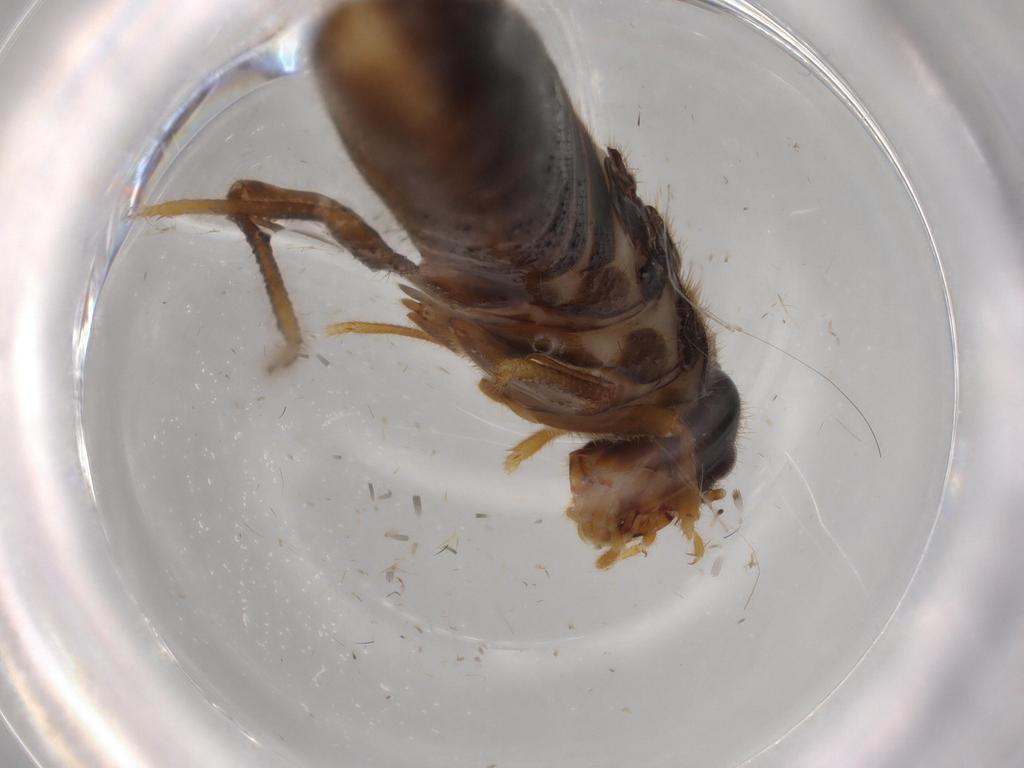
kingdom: Animalia
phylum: Arthropoda
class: Insecta
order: Blattodea
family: Termitidae
